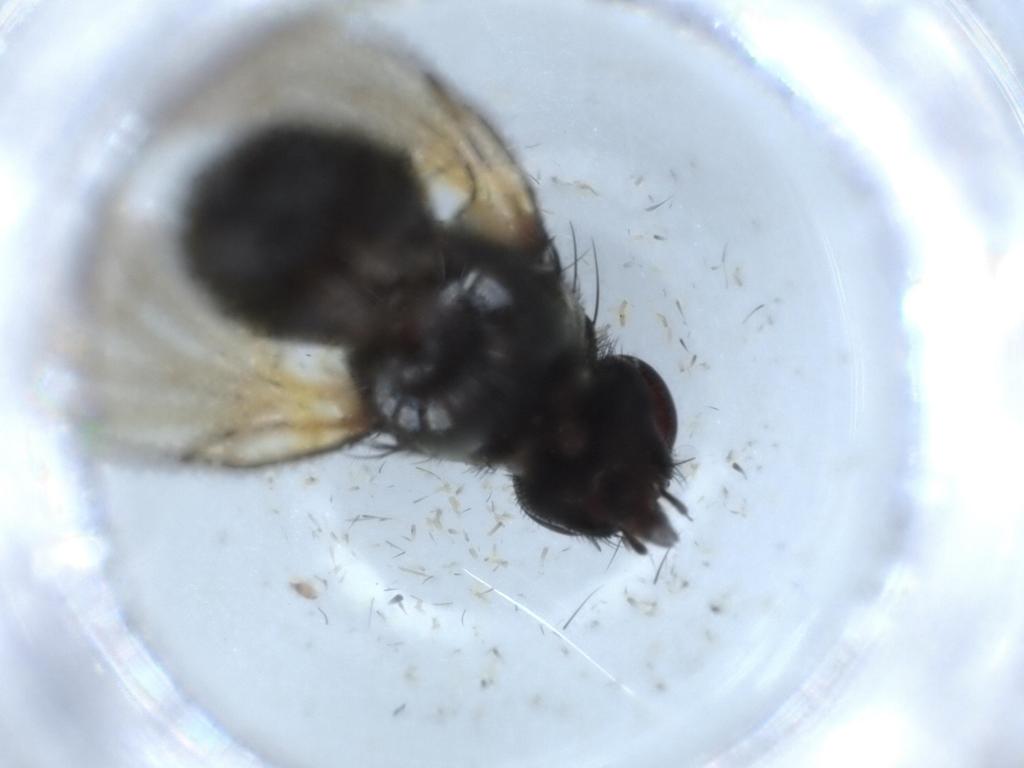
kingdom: Animalia
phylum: Arthropoda
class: Insecta
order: Diptera
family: Muscidae
